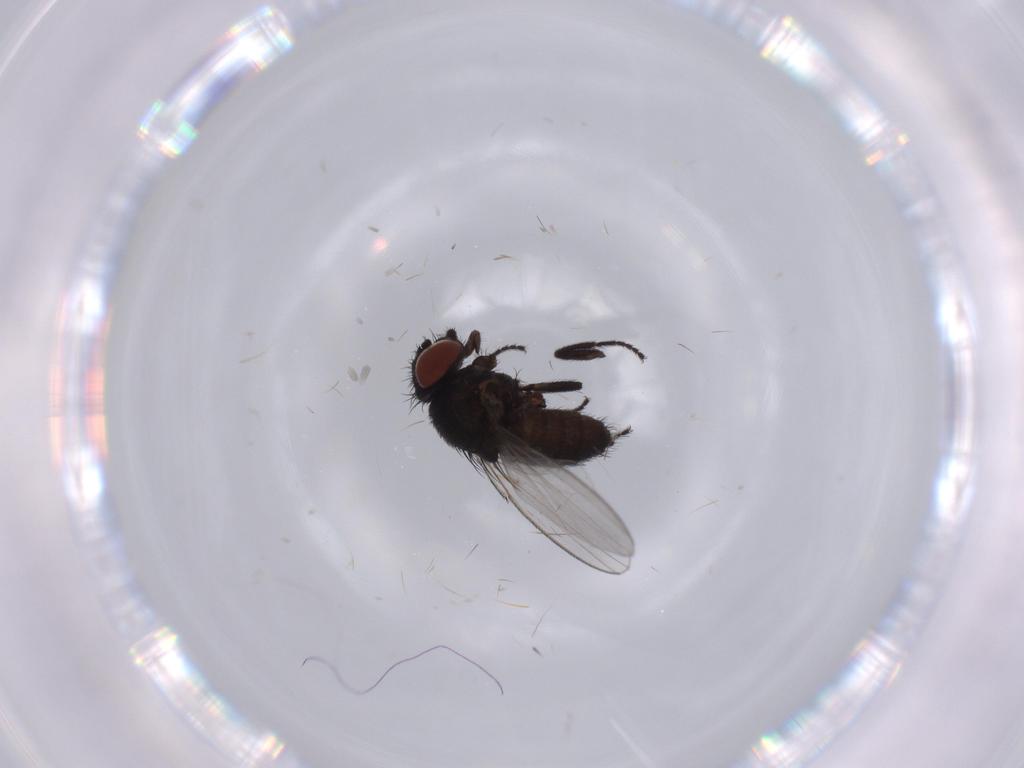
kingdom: Animalia
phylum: Arthropoda
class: Insecta
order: Diptera
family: Milichiidae
